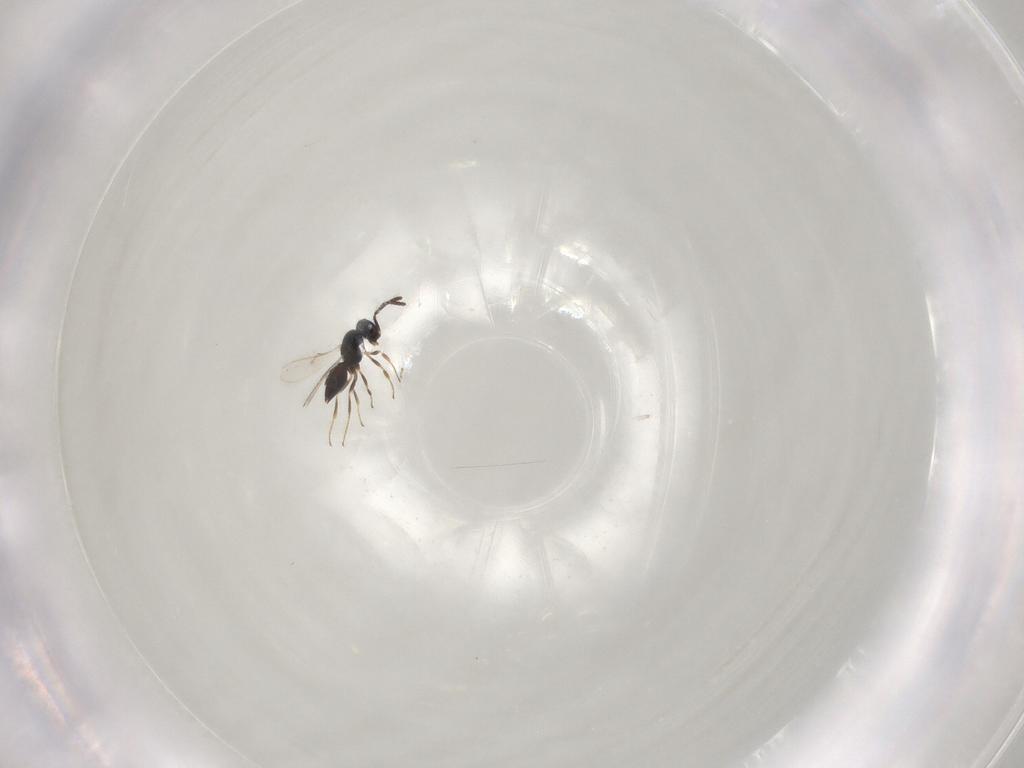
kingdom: Animalia
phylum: Arthropoda
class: Insecta
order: Hymenoptera
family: Scelionidae
